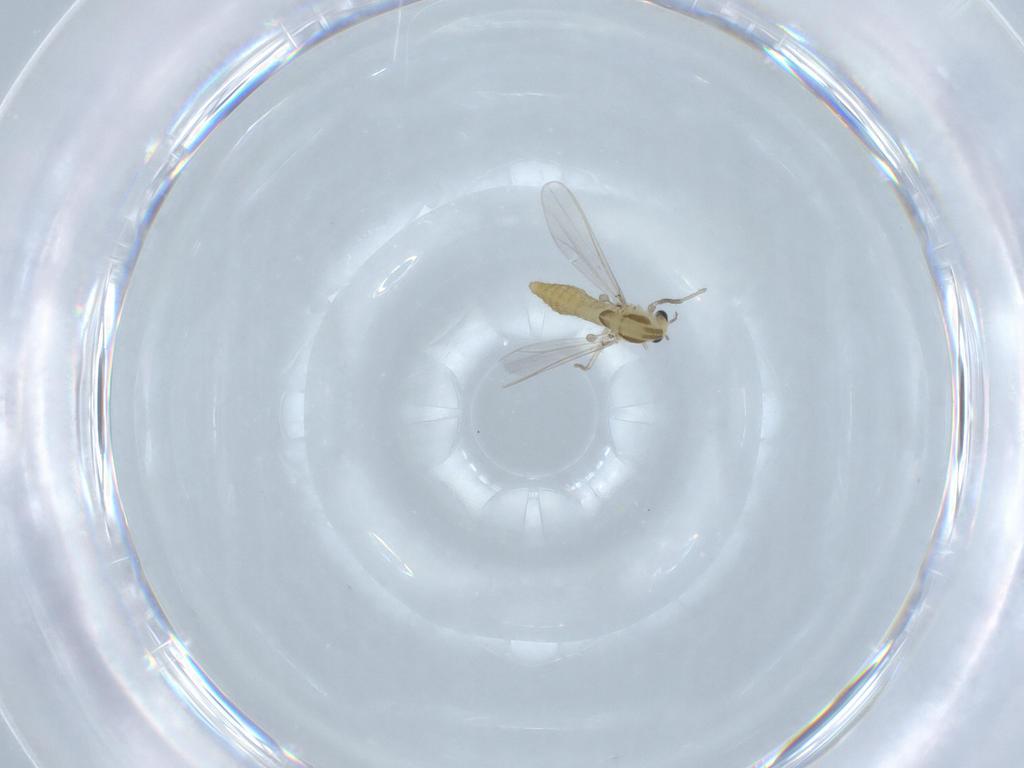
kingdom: Animalia
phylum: Arthropoda
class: Insecta
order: Diptera
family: Chironomidae
